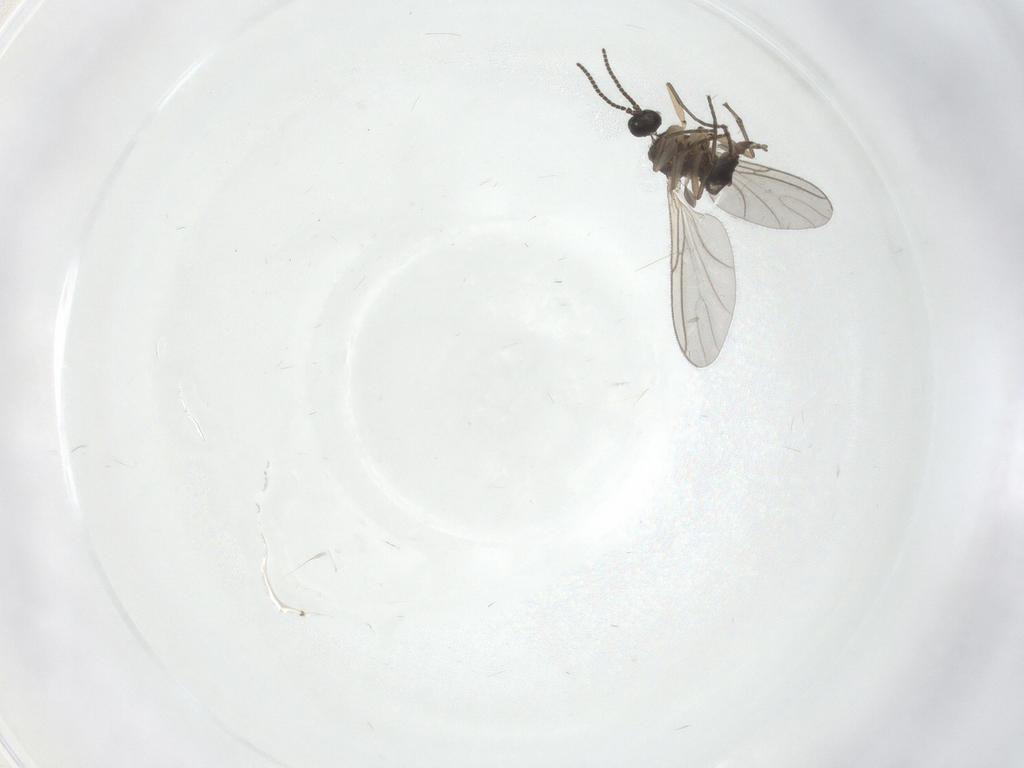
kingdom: Animalia
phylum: Arthropoda
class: Insecta
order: Diptera
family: Sciaridae
